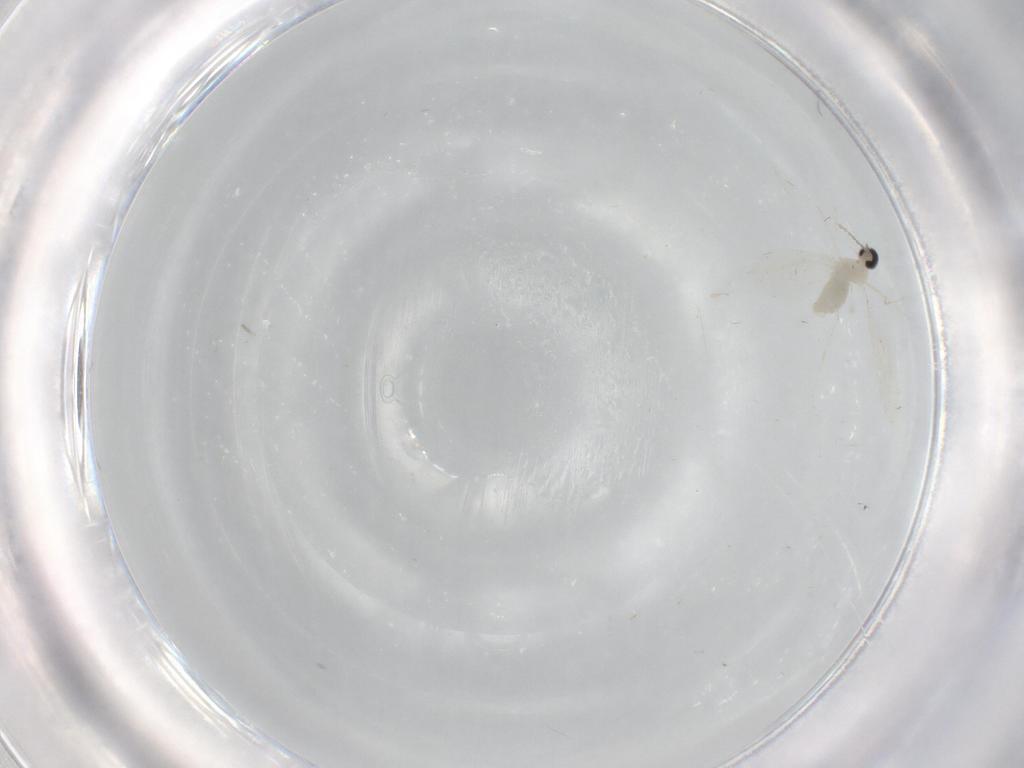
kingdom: Animalia
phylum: Arthropoda
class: Insecta
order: Diptera
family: Cecidomyiidae
